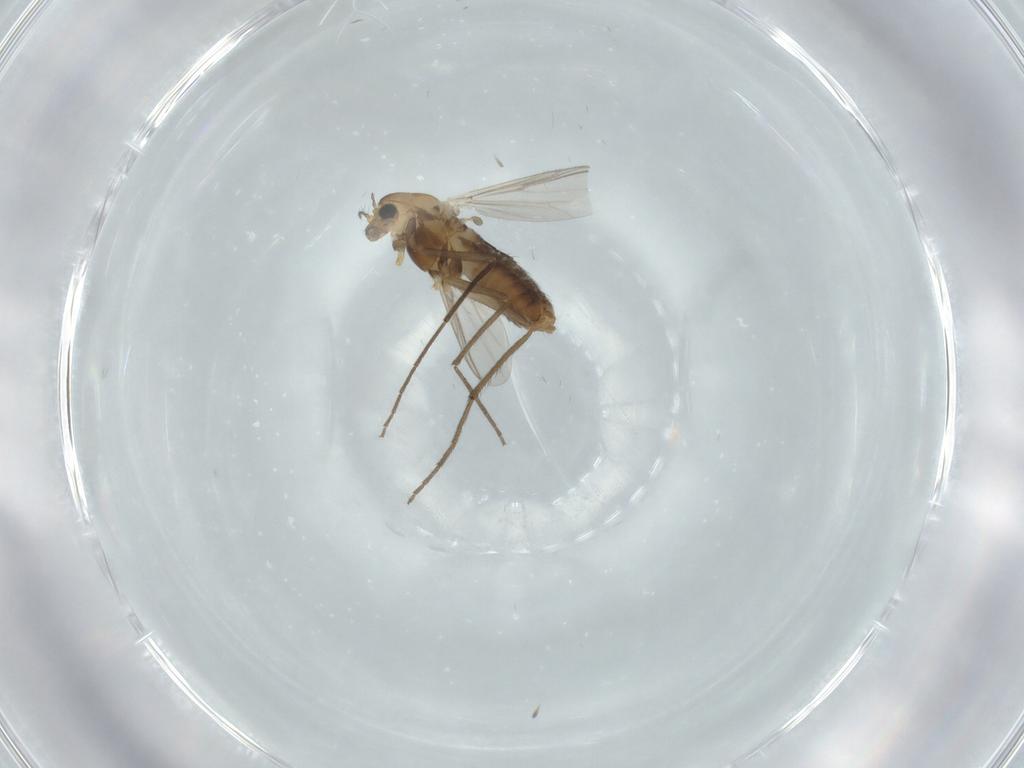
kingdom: Animalia
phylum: Arthropoda
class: Insecta
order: Diptera
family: Chironomidae
